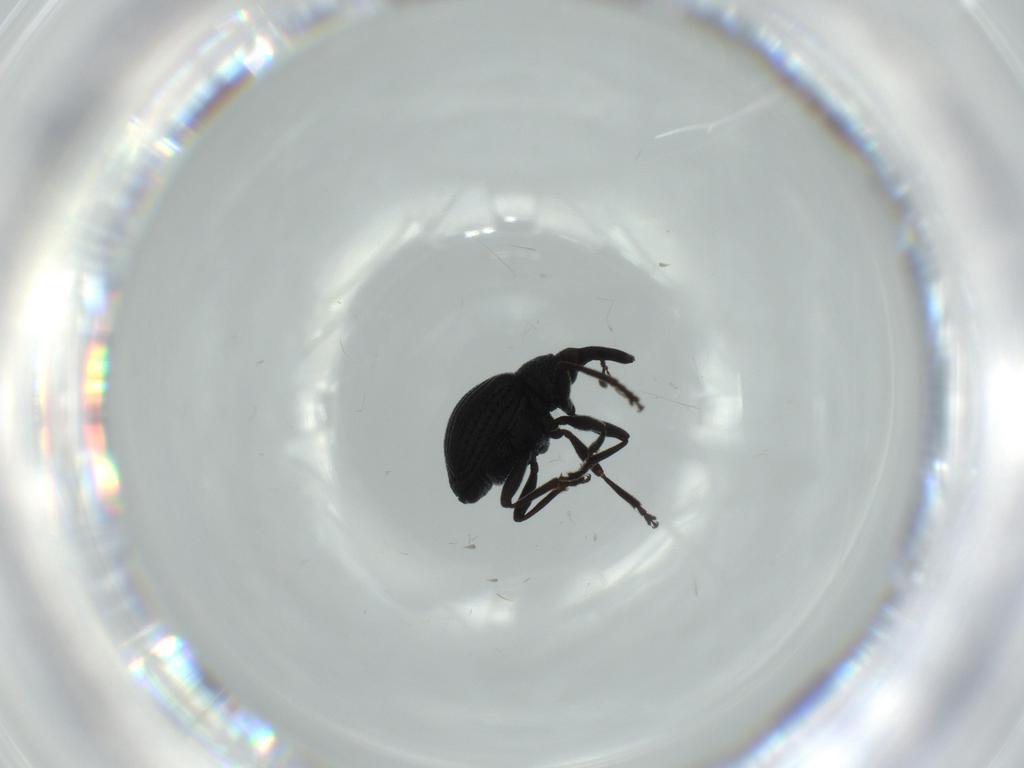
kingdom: Animalia
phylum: Arthropoda
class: Insecta
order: Coleoptera
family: Brentidae
